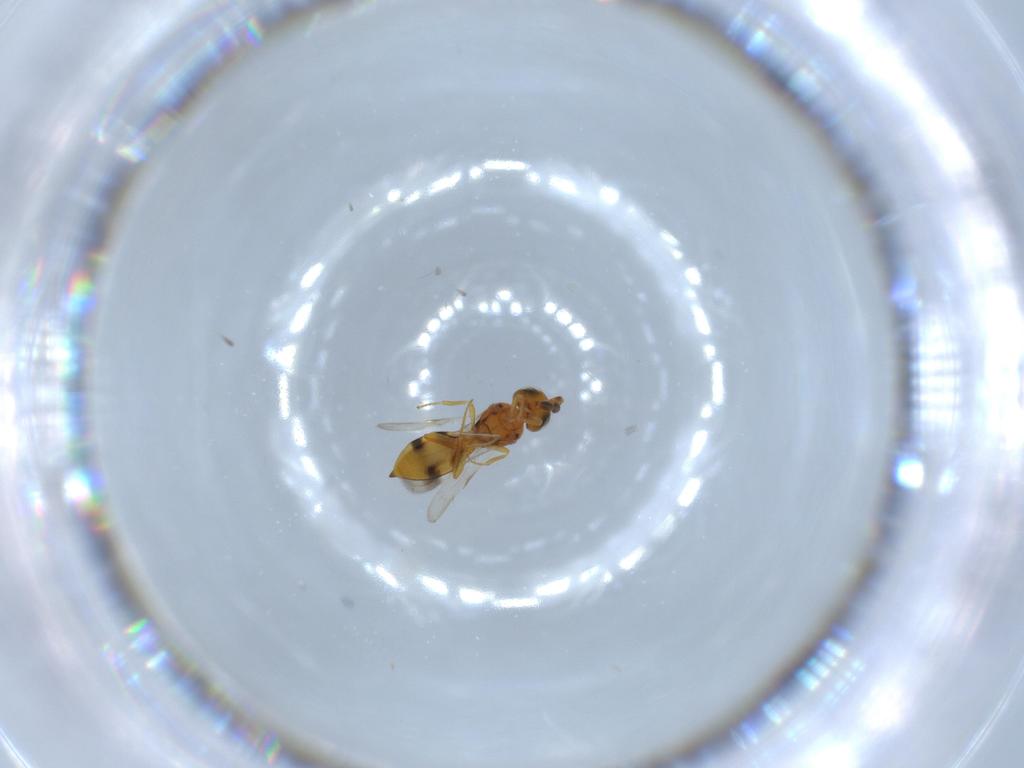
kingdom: Animalia
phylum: Arthropoda
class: Insecta
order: Hymenoptera
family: Scelionidae
